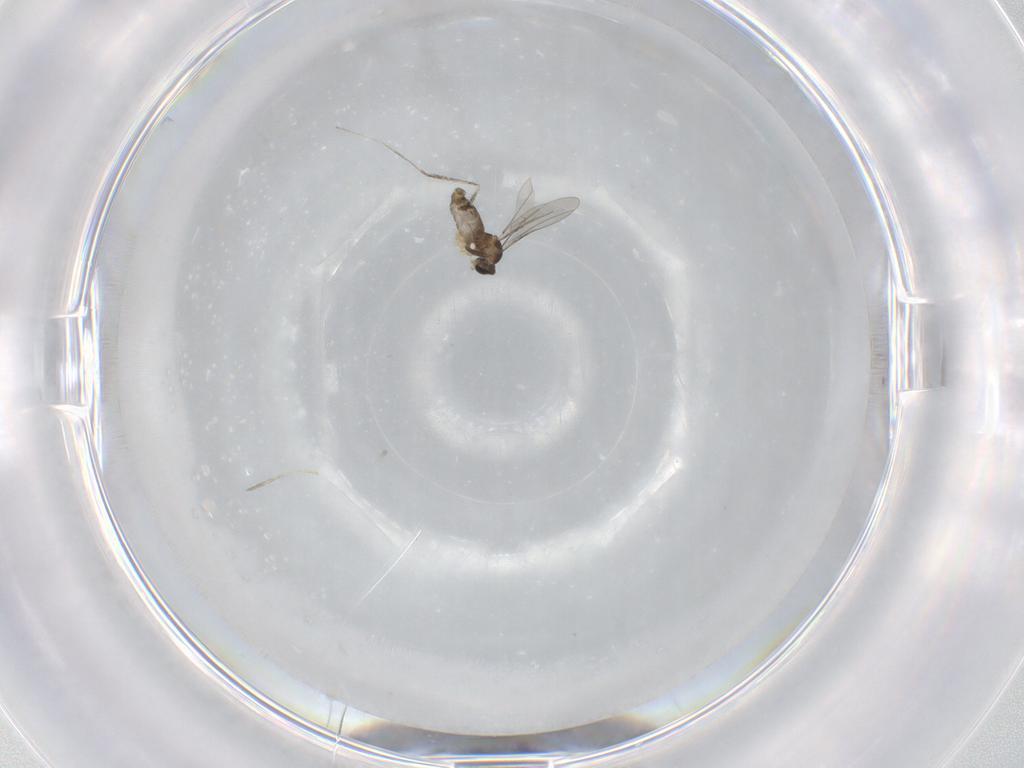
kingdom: Animalia
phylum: Arthropoda
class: Insecta
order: Diptera
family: Cecidomyiidae
